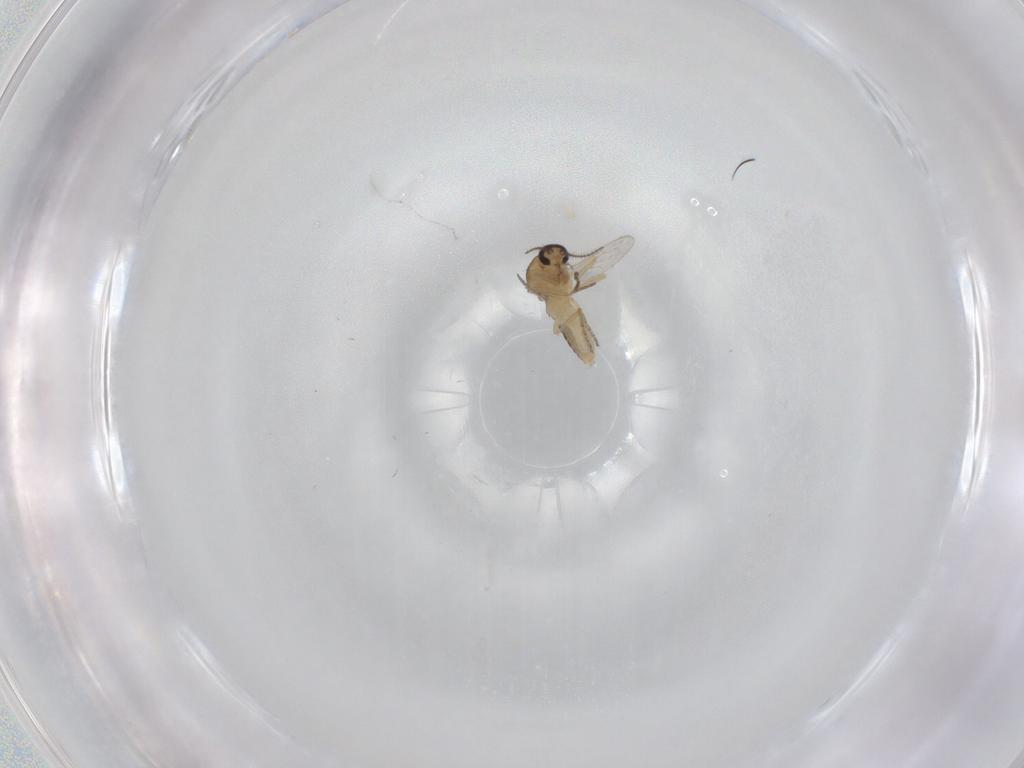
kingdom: Animalia
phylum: Arthropoda
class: Insecta
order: Diptera
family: Ceratopogonidae
